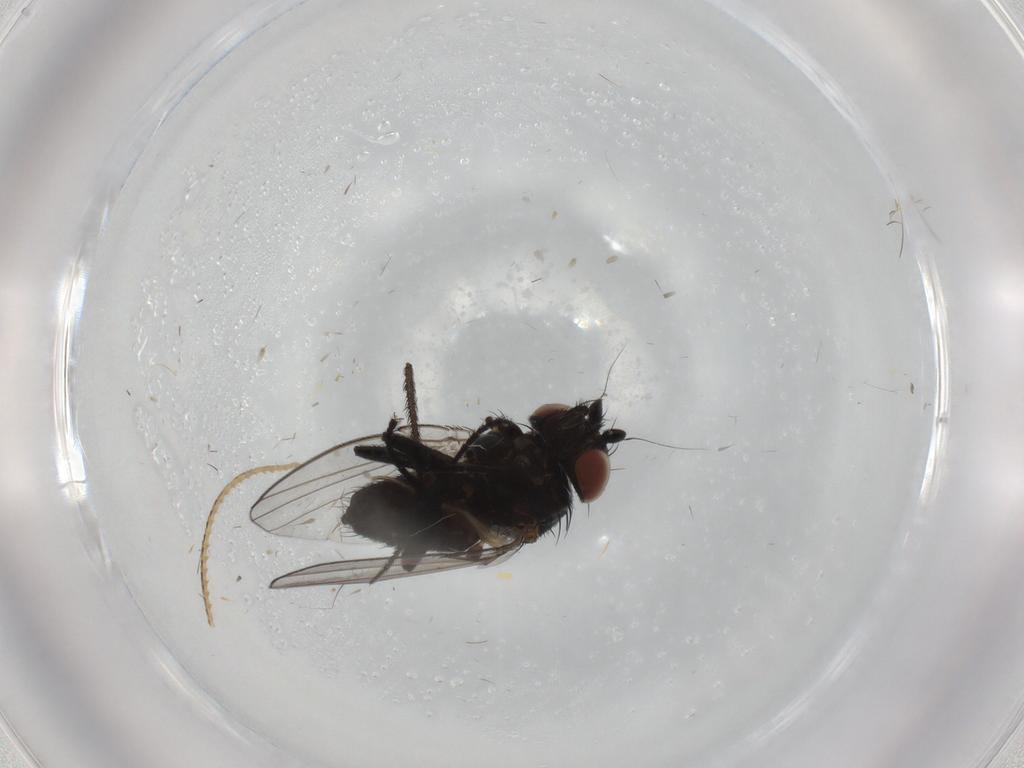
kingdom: Animalia
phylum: Arthropoda
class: Insecta
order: Diptera
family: Milichiidae
